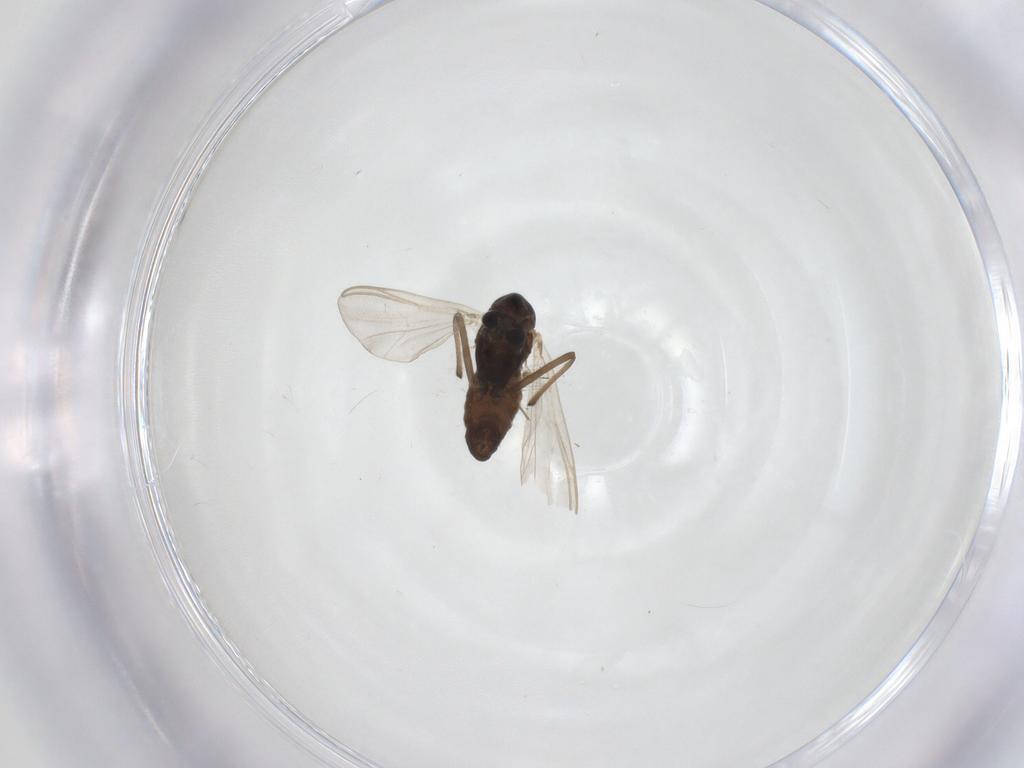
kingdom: Animalia
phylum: Arthropoda
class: Insecta
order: Diptera
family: Chironomidae
